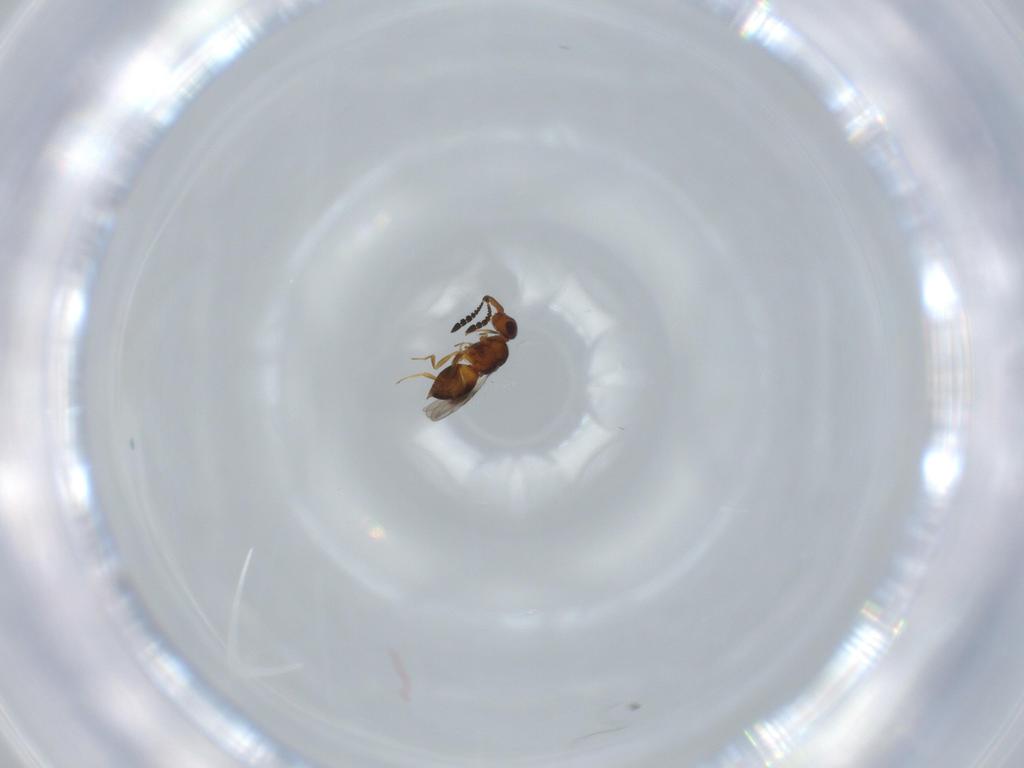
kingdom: Animalia
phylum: Arthropoda
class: Insecta
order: Hymenoptera
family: Ceraphronidae
